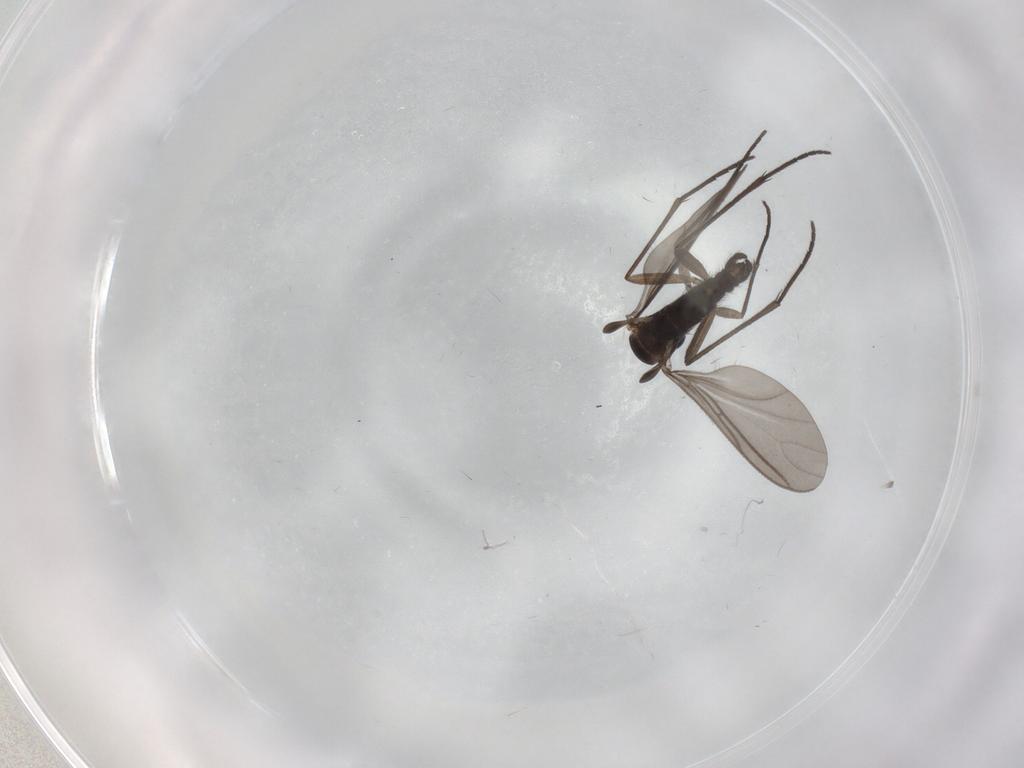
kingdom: Animalia
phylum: Arthropoda
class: Insecta
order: Diptera
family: Sciaridae
